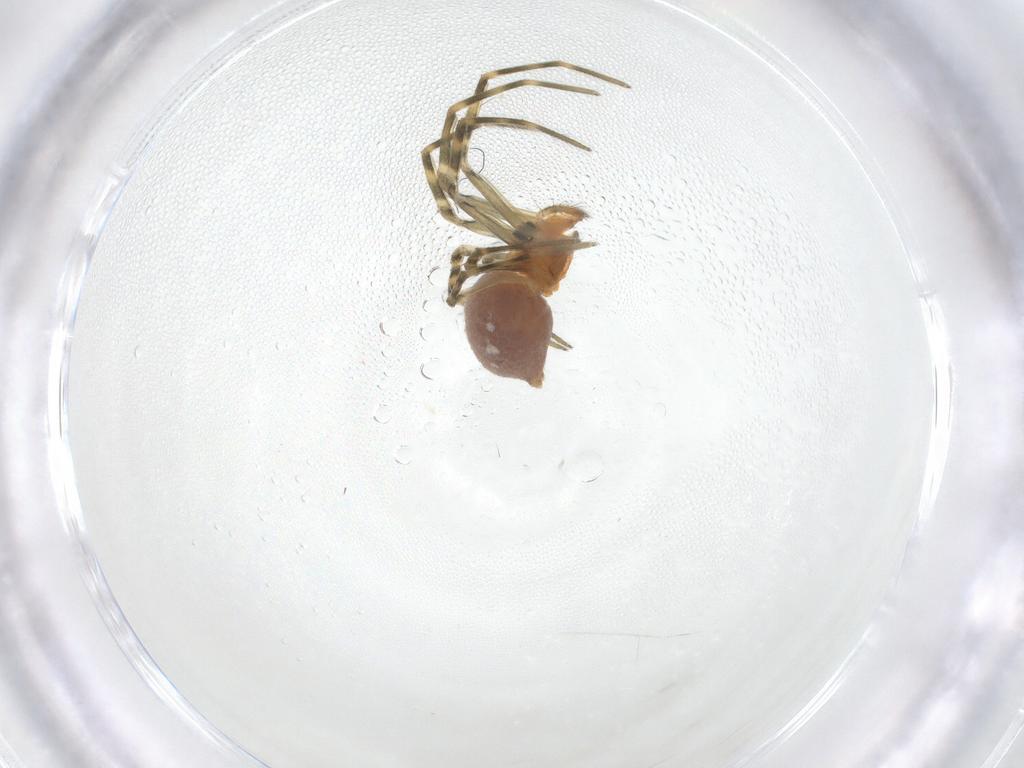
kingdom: Animalia
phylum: Arthropoda
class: Arachnida
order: Araneae
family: Linyphiidae
